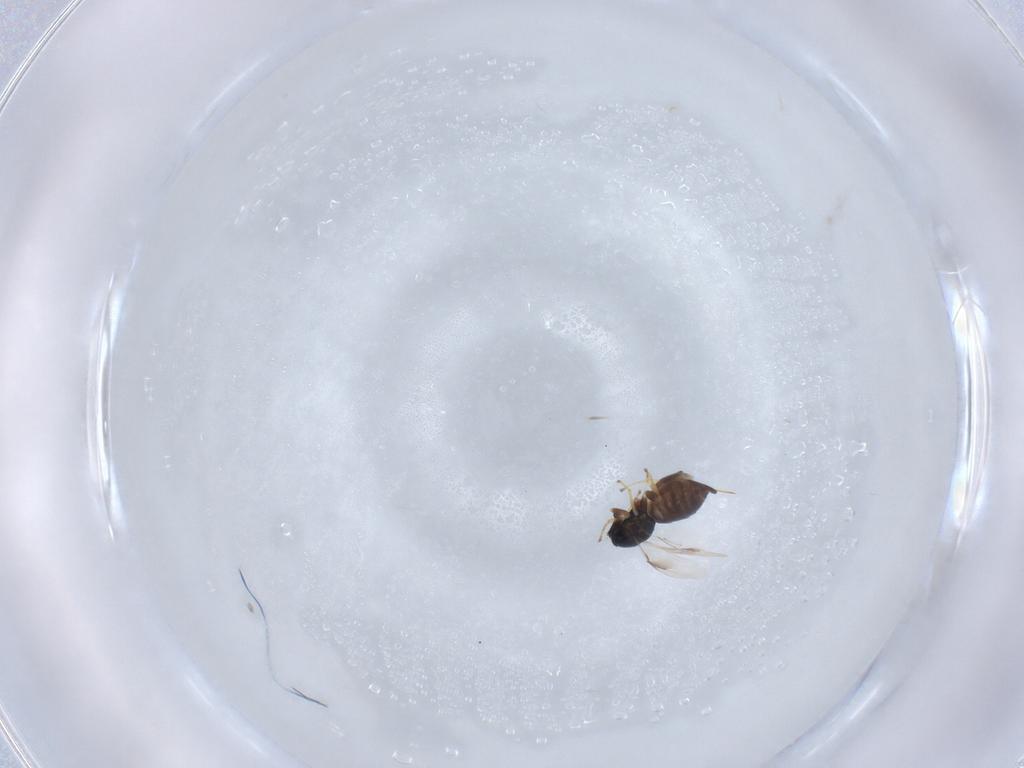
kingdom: Animalia
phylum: Arthropoda
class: Insecta
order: Hymenoptera
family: Pteromalidae
